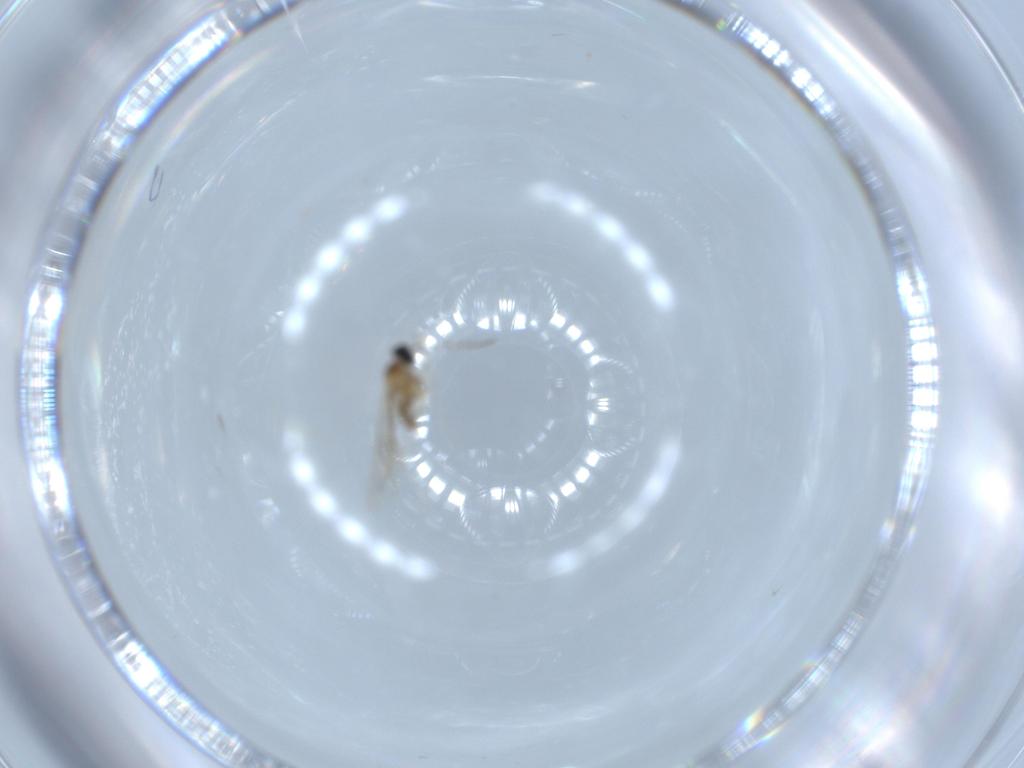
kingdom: Animalia
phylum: Arthropoda
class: Insecta
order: Diptera
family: Cecidomyiidae
